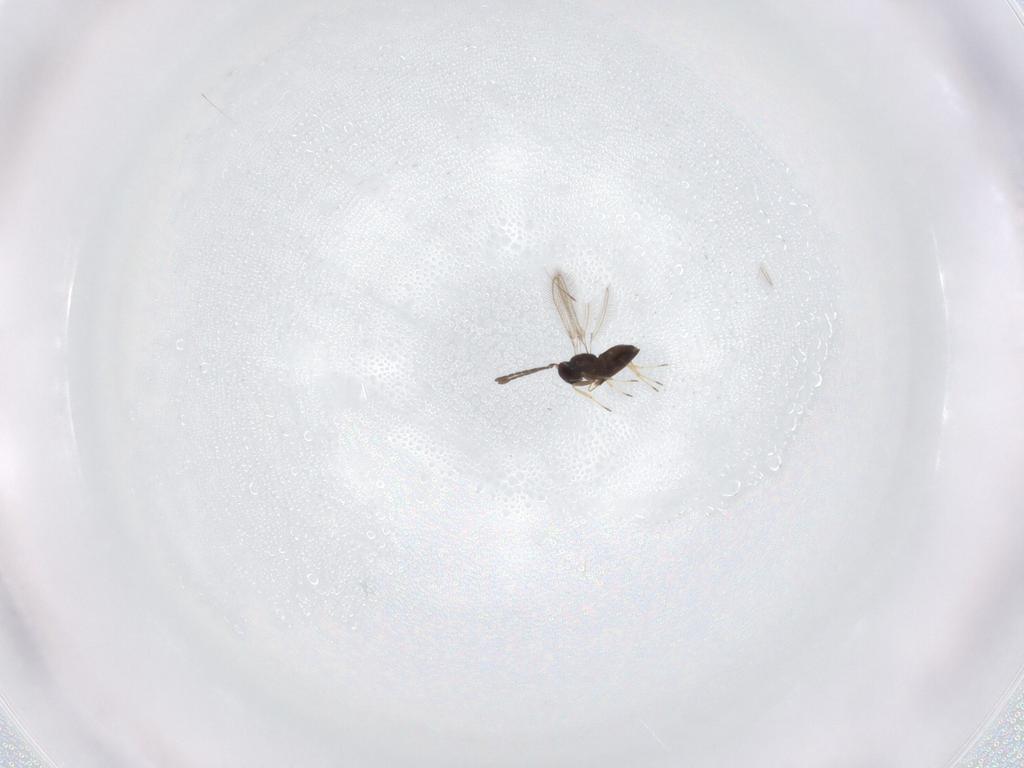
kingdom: Animalia
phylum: Arthropoda
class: Insecta
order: Hymenoptera
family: Mymaridae
